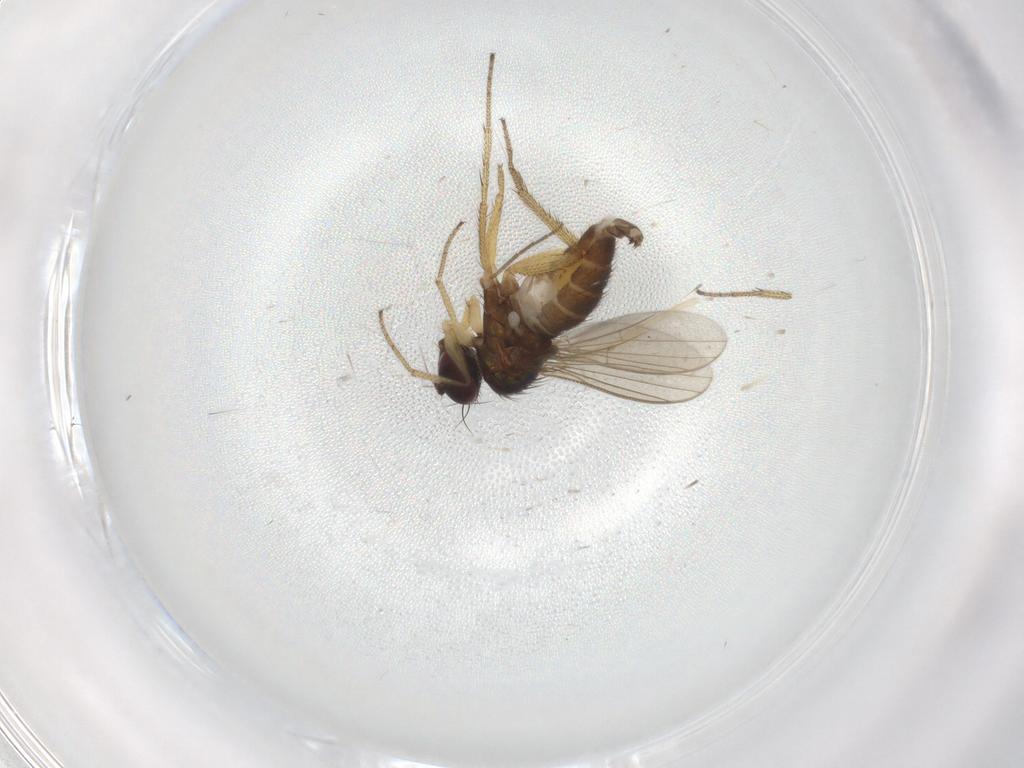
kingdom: Animalia
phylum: Arthropoda
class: Insecta
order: Diptera
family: Dolichopodidae
